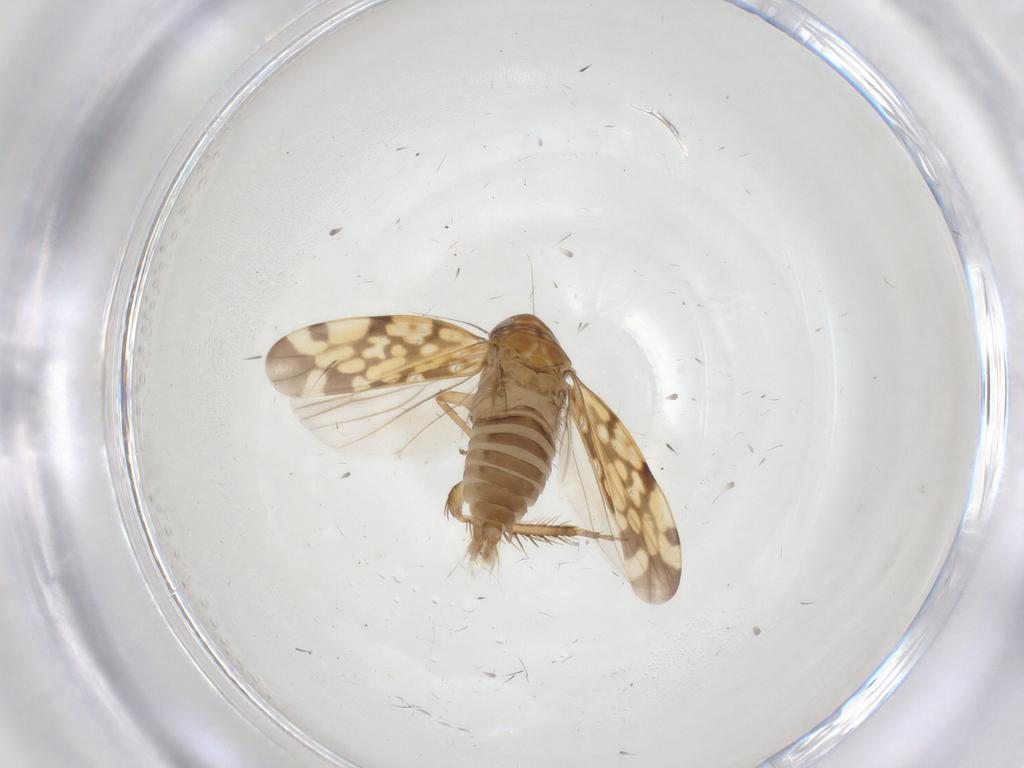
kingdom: Animalia
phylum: Arthropoda
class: Insecta
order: Hemiptera
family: Cicadellidae
